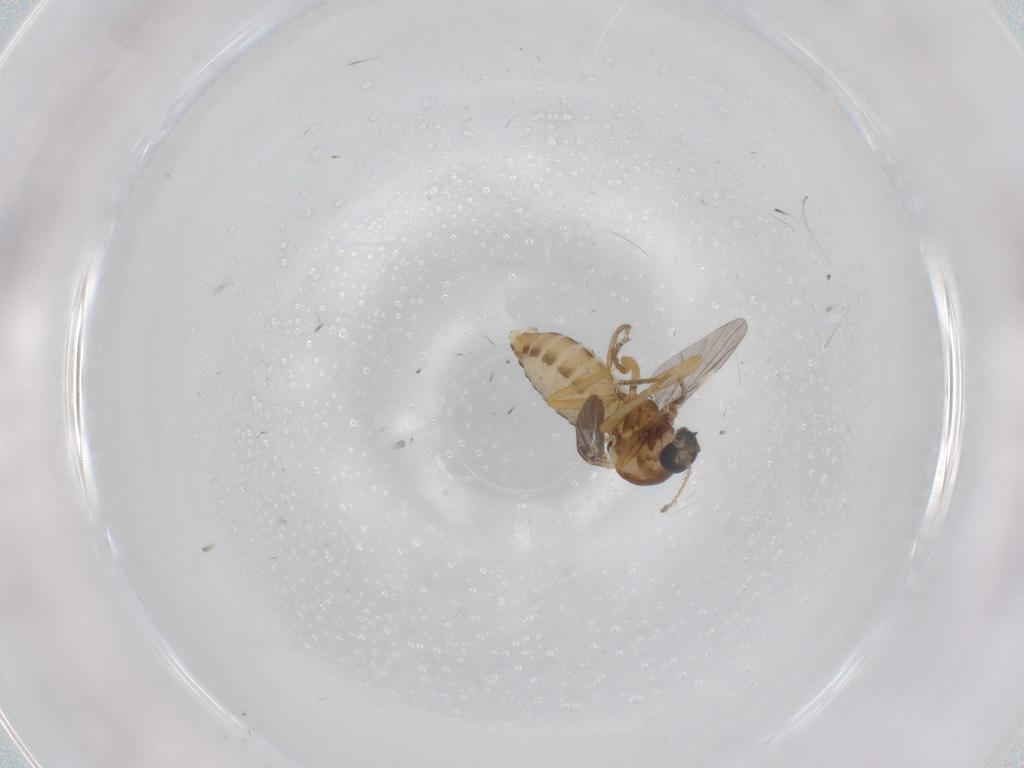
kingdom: Animalia
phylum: Arthropoda
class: Insecta
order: Diptera
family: Ceratopogonidae
